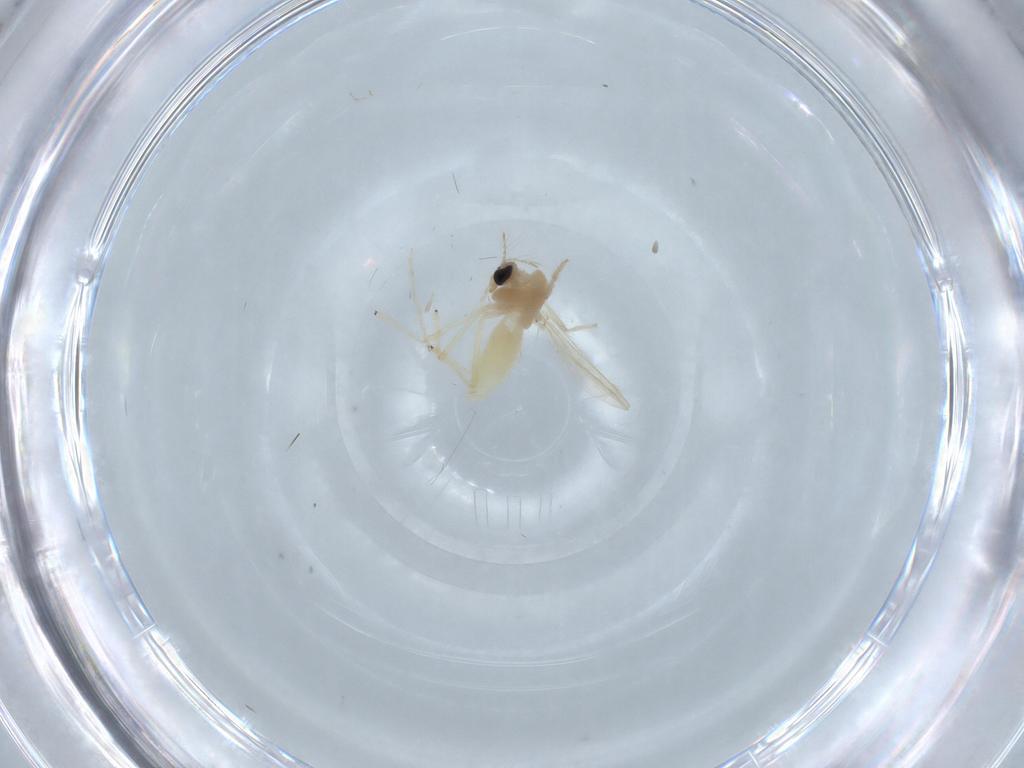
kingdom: Animalia
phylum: Arthropoda
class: Insecta
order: Diptera
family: Chironomidae
